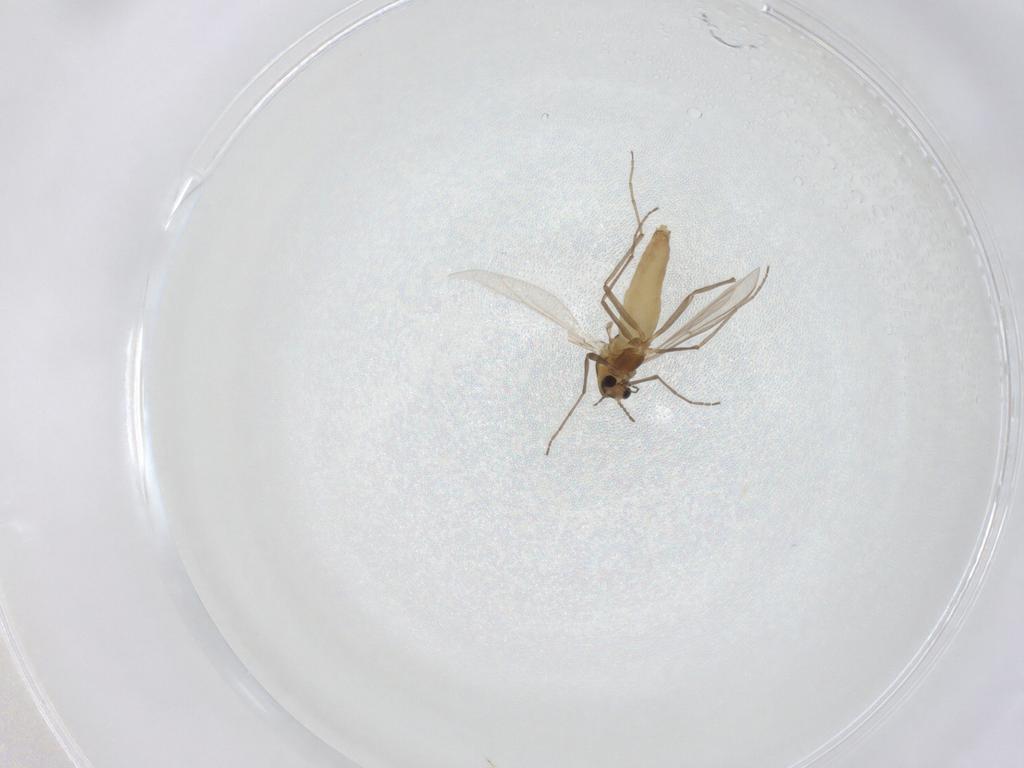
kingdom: Animalia
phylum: Arthropoda
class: Insecta
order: Diptera
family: Chironomidae
